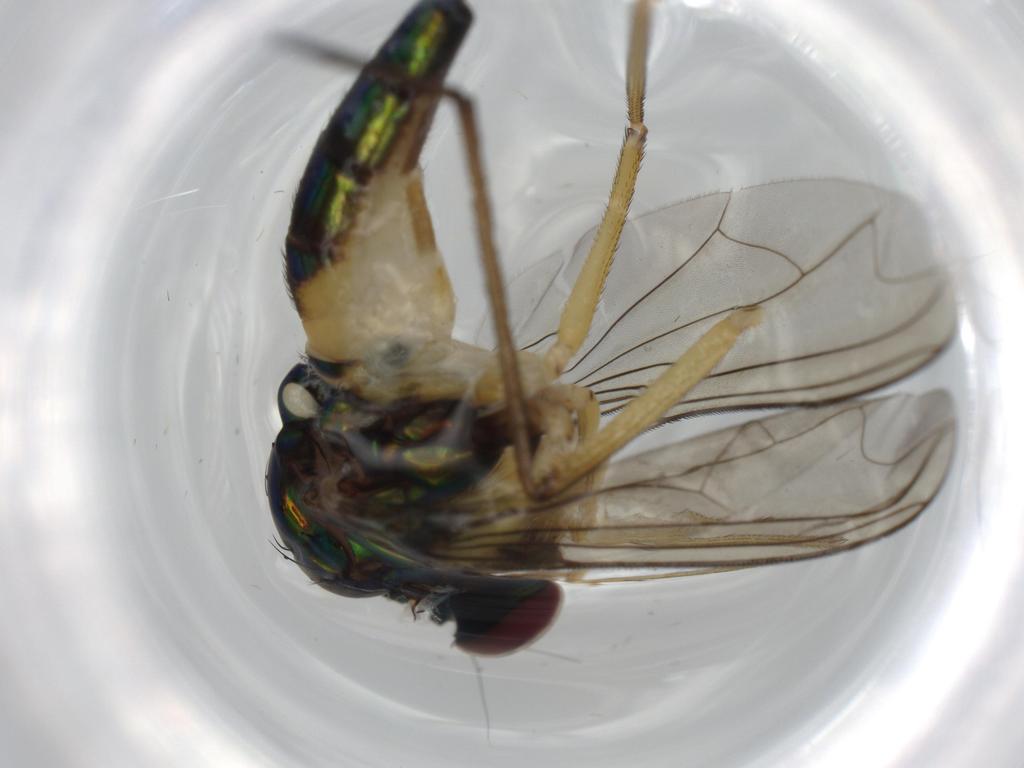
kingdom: Animalia
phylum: Arthropoda
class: Insecta
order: Diptera
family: Dolichopodidae
